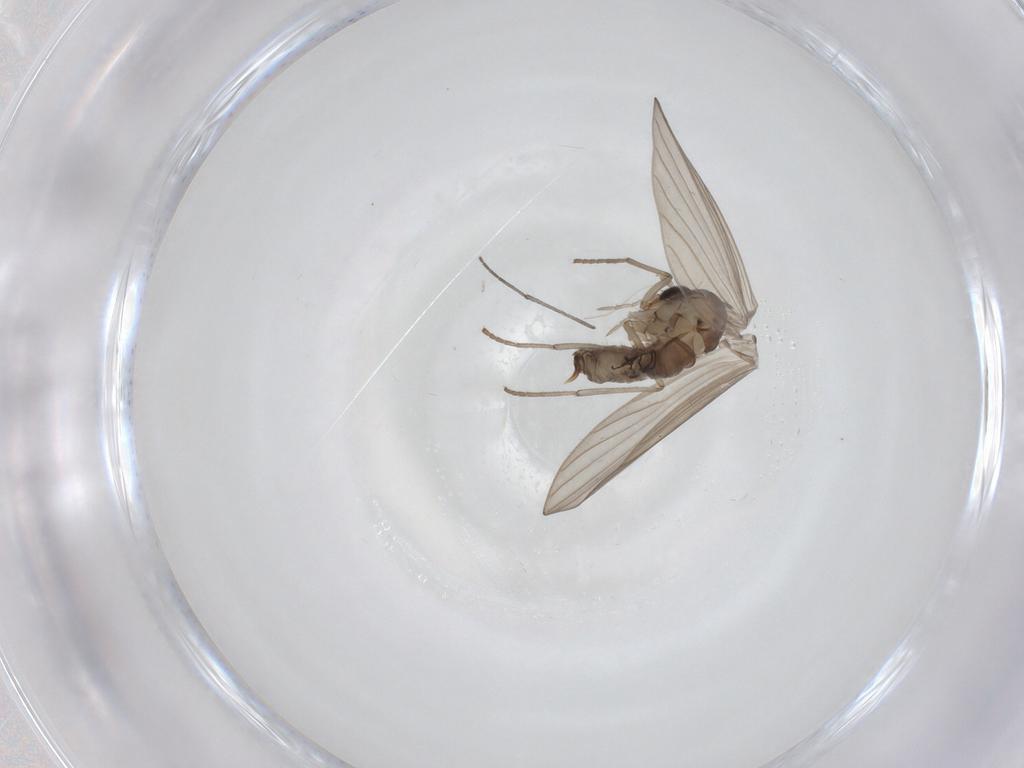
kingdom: Animalia
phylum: Arthropoda
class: Insecta
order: Diptera
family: Psychodidae
